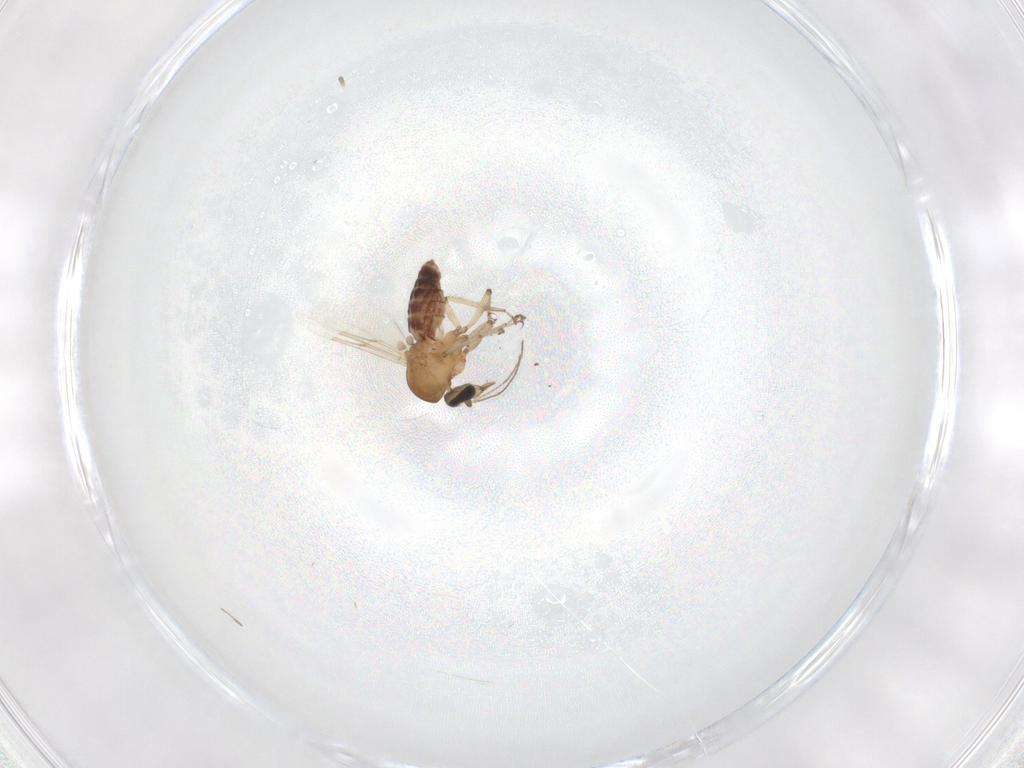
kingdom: Animalia
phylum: Arthropoda
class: Insecta
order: Diptera
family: Ceratopogonidae
